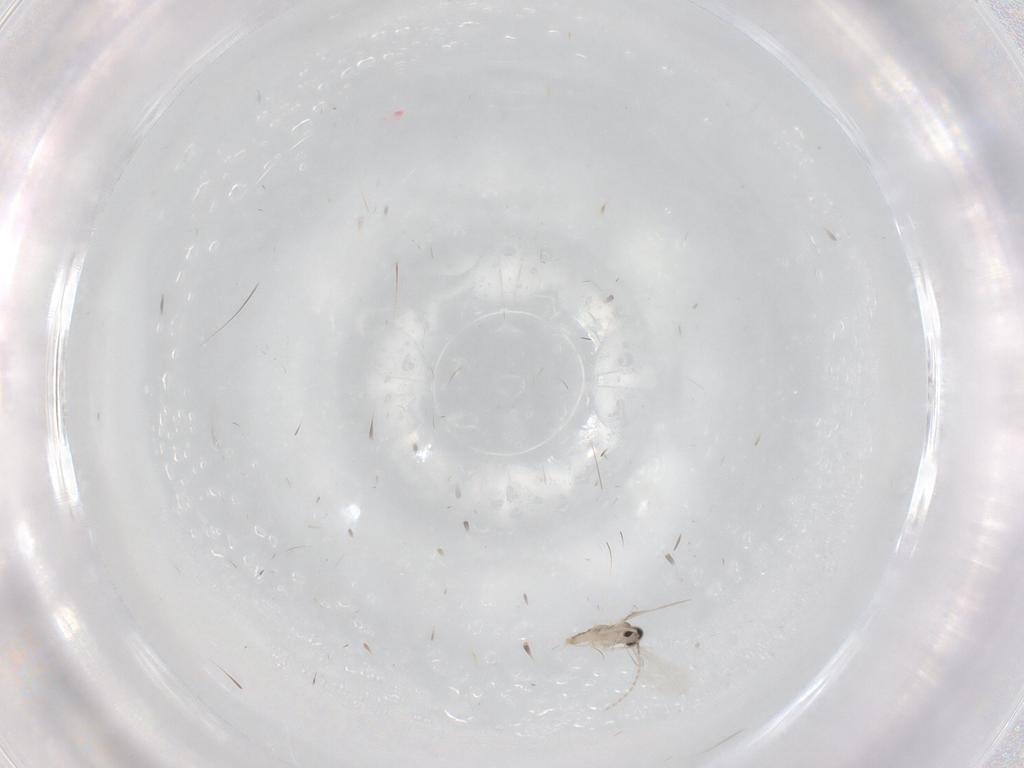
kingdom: Animalia
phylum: Arthropoda
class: Insecta
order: Diptera
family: Cecidomyiidae
